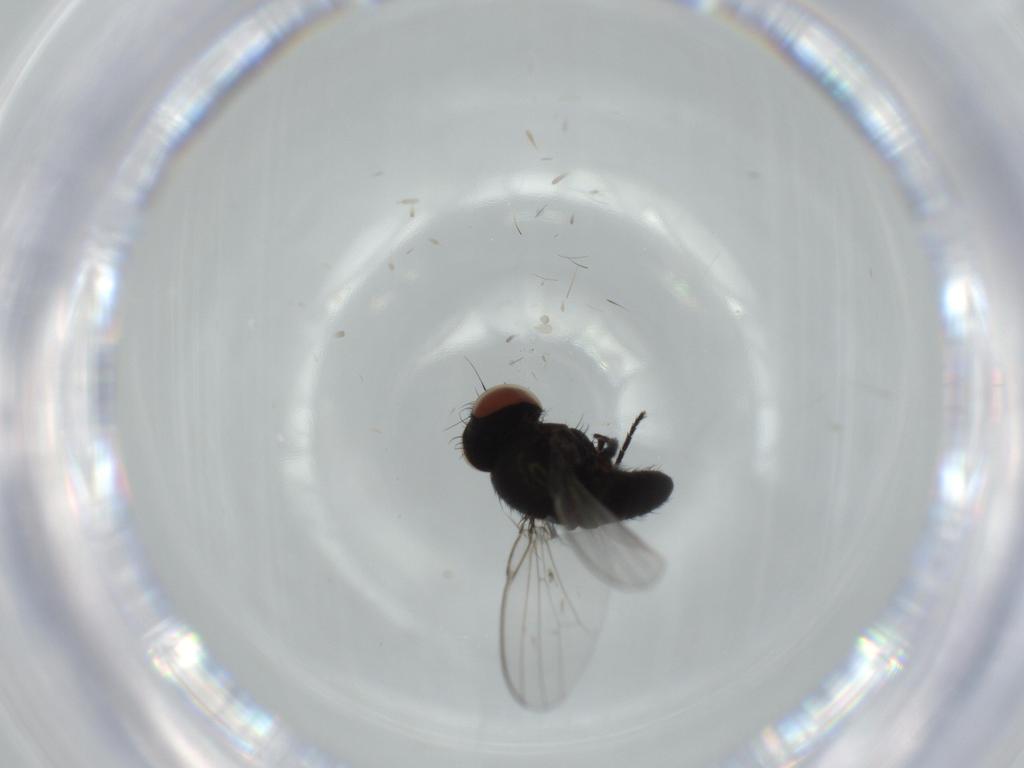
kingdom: Animalia
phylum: Arthropoda
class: Insecta
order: Diptera
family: Milichiidae
